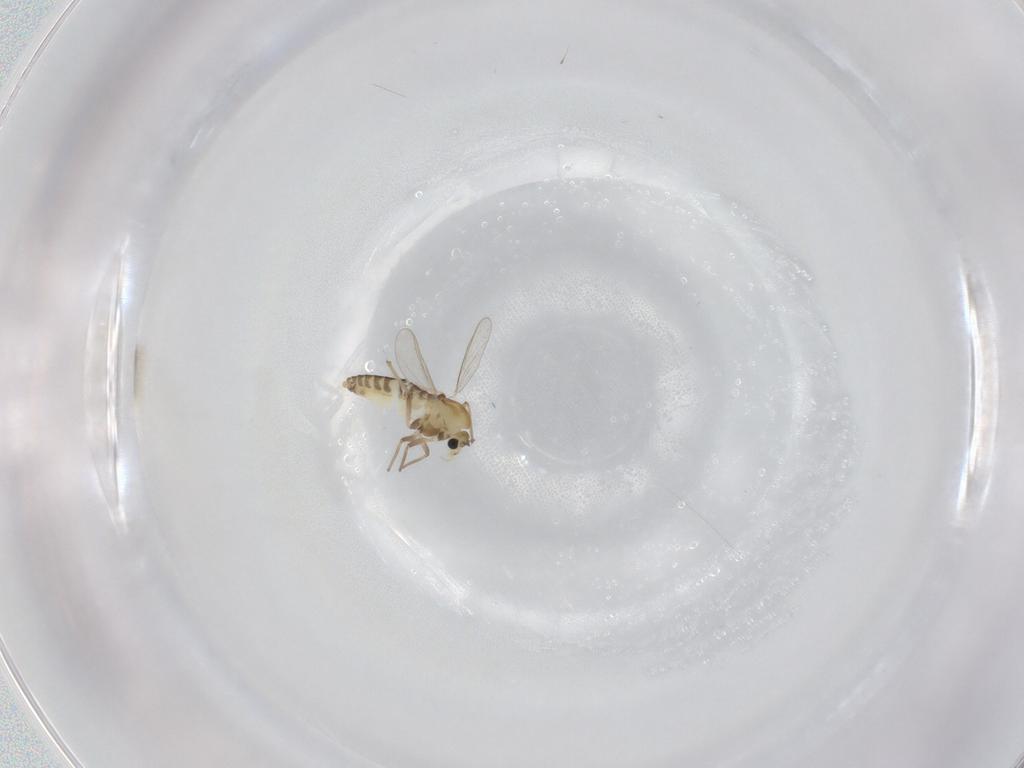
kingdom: Animalia
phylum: Arthropoda
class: Insecta
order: Diptera
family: Chironomidae
